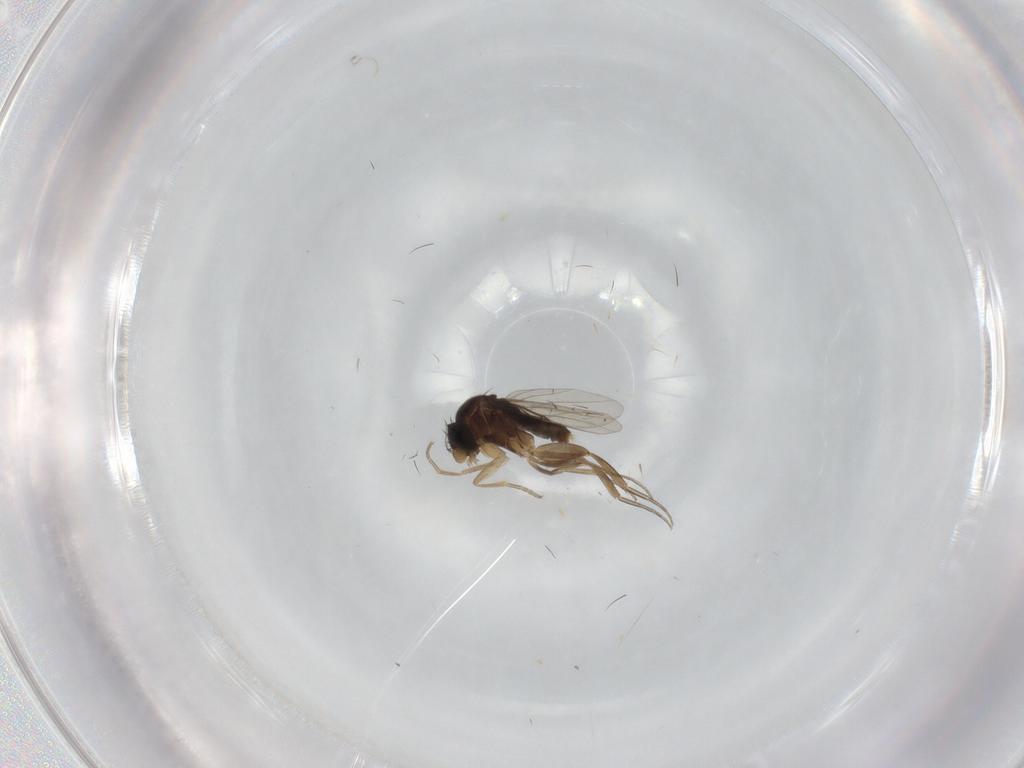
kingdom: Animalia
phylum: Arthropoda
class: Insecta
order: Diptera
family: Phoridae
